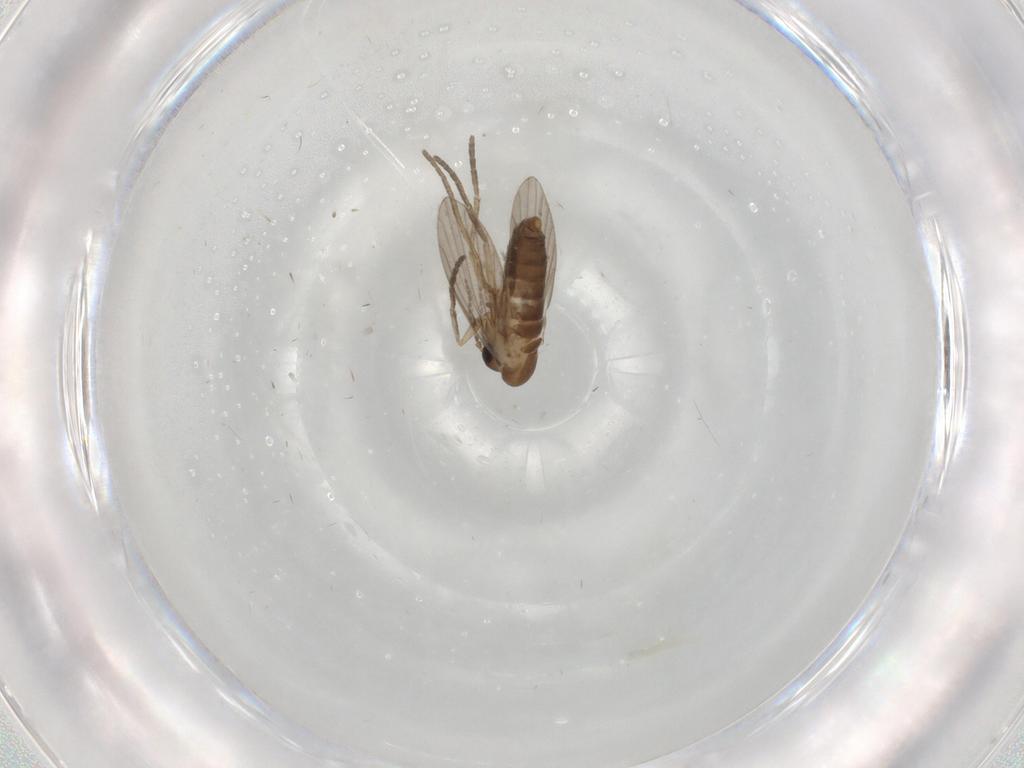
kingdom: Animalia
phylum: Arthropoda
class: Insecta
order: Diptera
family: Psychodidae
